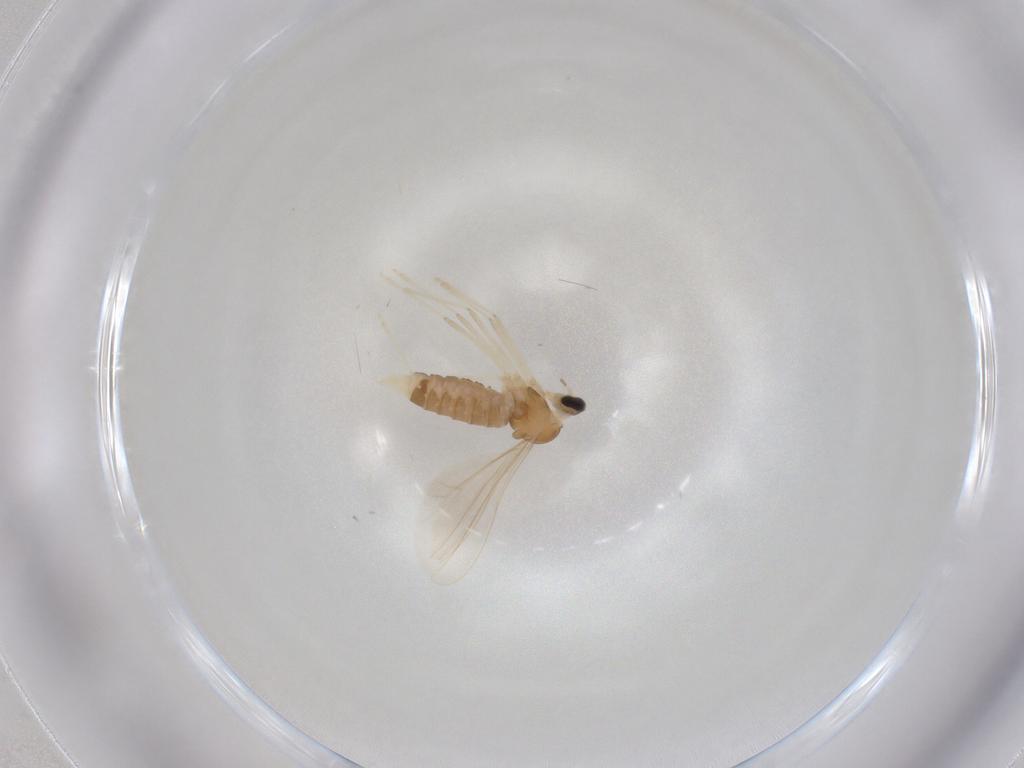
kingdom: Animalia
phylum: Arthropoda
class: Insecta
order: Diptera
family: Cecidomyiidae
